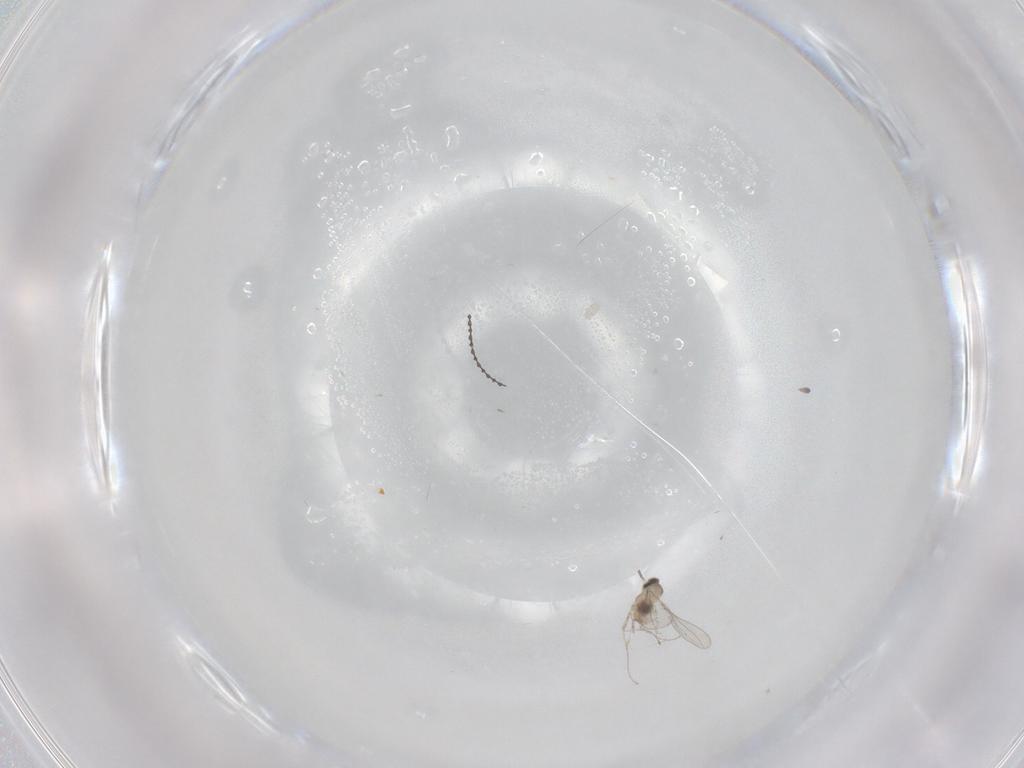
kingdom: Animalia
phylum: Arthropoda
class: Insecta
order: Diptera
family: Cecidomyiidae
